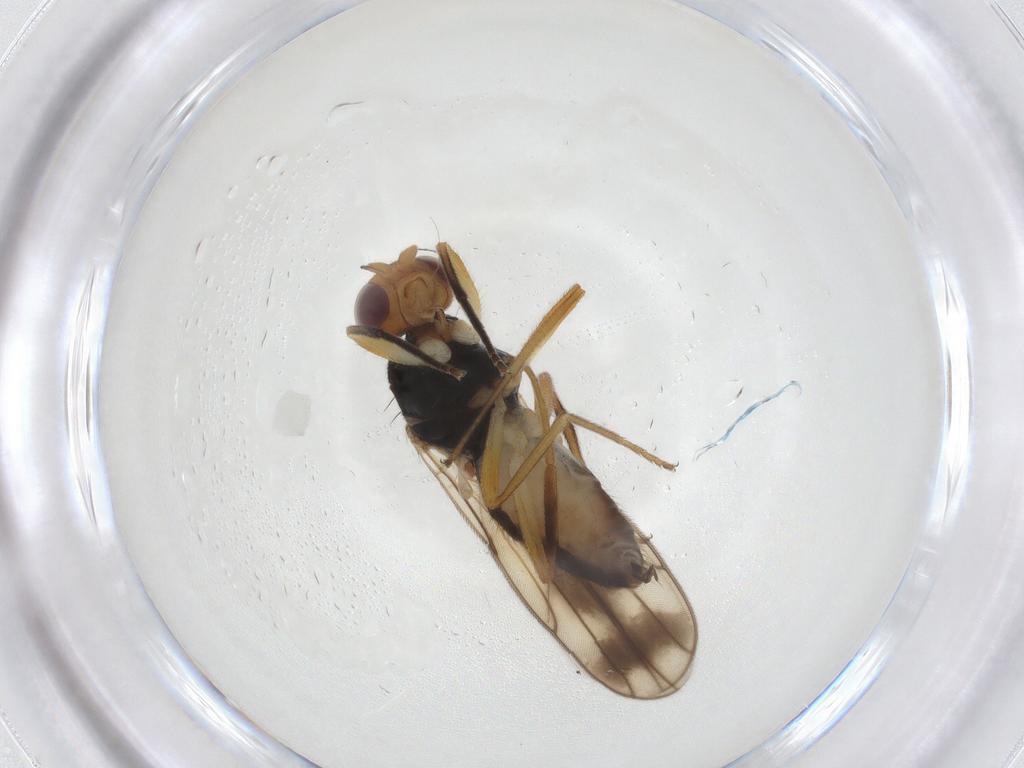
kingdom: Animalia
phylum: Arthropoda
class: Insecta
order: Diptera
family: Chloropidae
